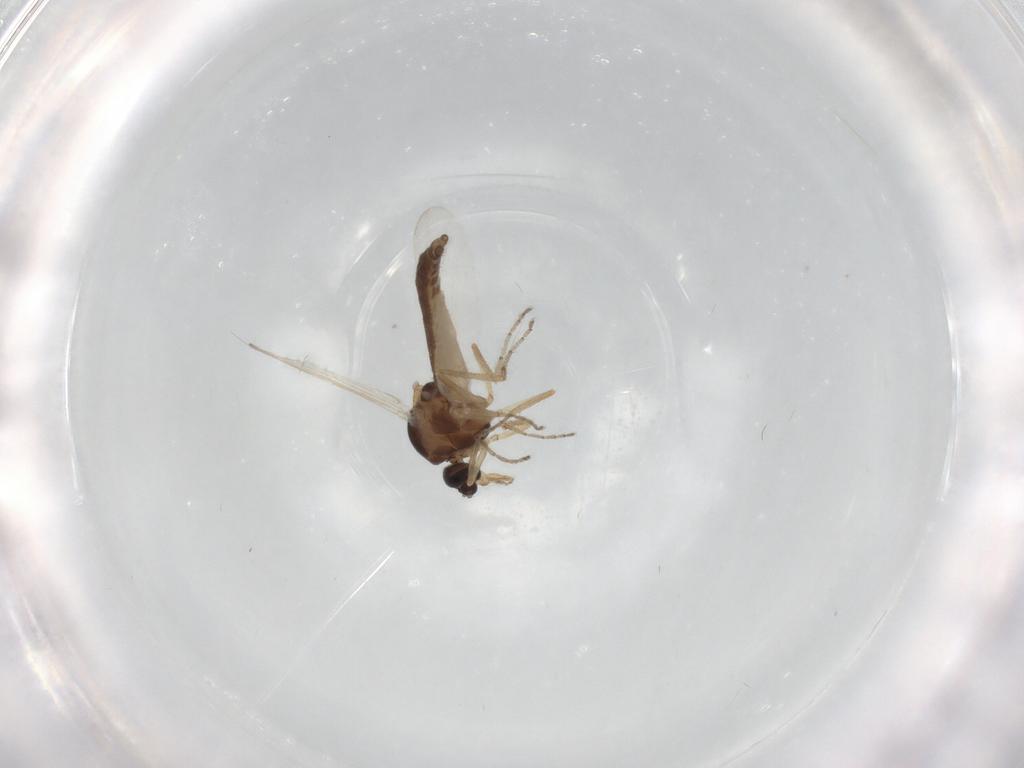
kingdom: Animalia
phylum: Arthropoda
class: Insecta
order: Diptera
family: Ceratopogonidae
